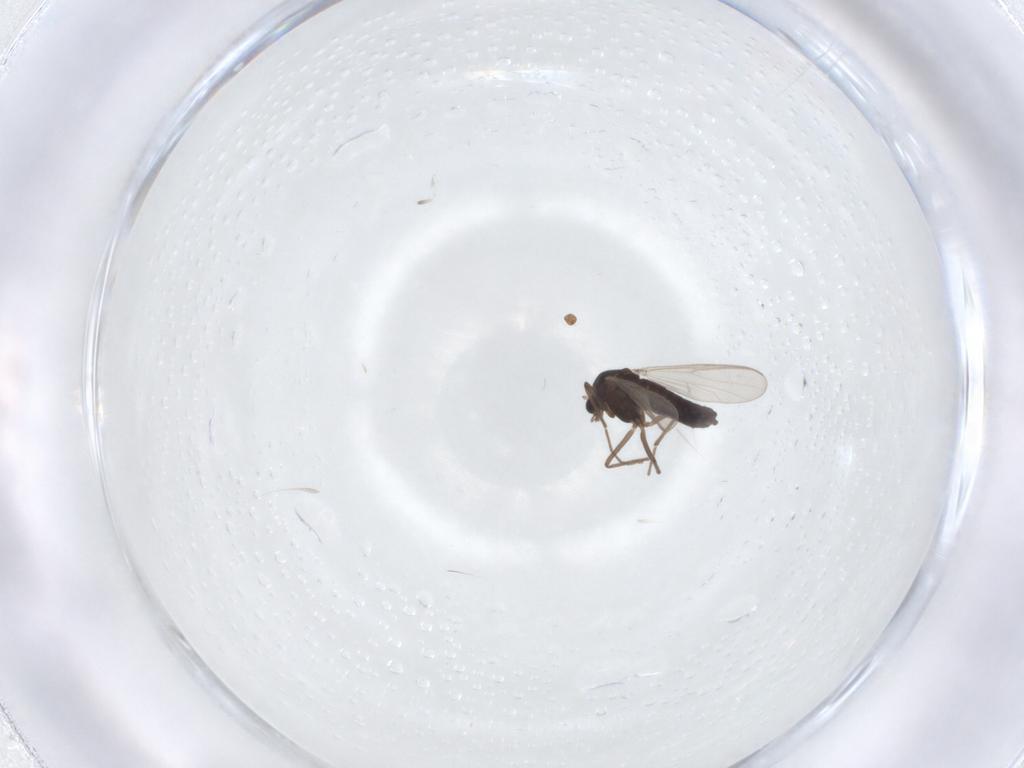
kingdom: Animalia
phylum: Arthropoda
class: Insecta
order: Diptera
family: Chironomidae
